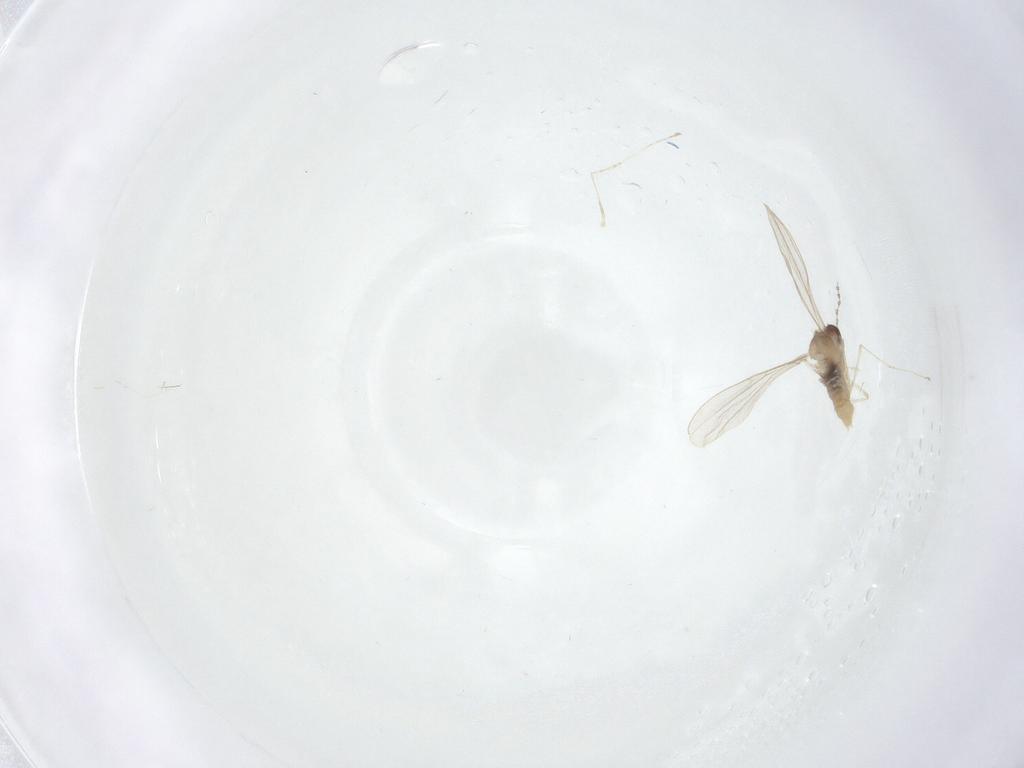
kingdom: Animalia
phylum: Arthropoda
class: Insecta
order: Diptera
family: Cecidomyiidae
